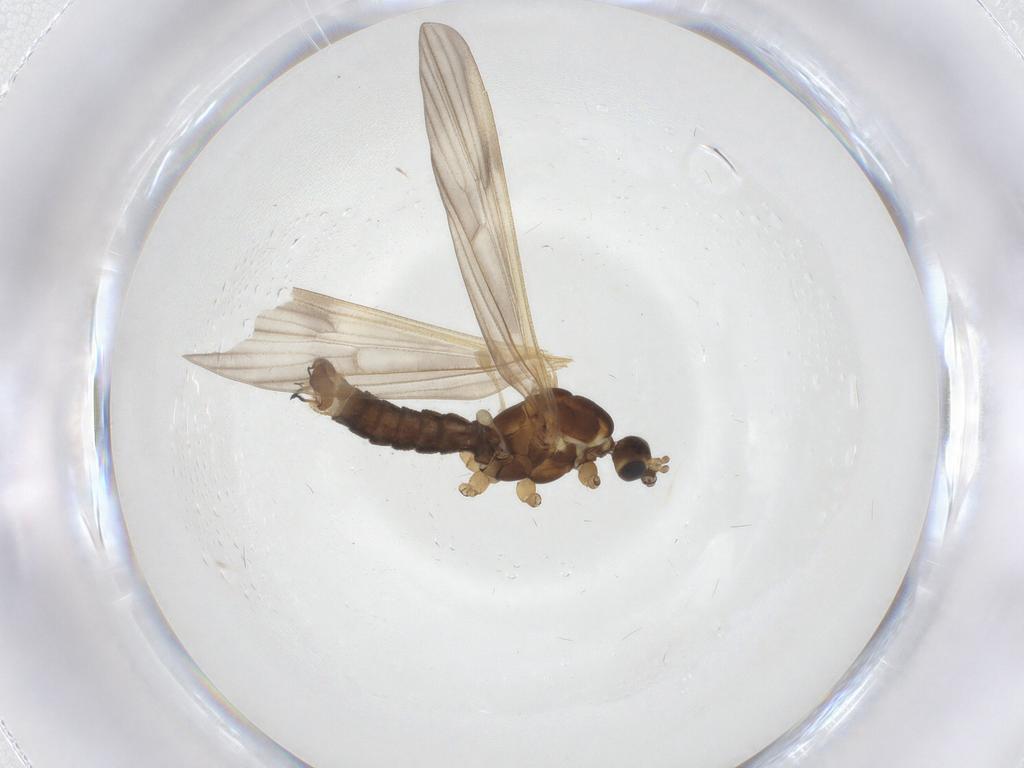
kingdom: Animalia
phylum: Arthropoda
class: Insecta
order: Diptera
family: Limoniidae
